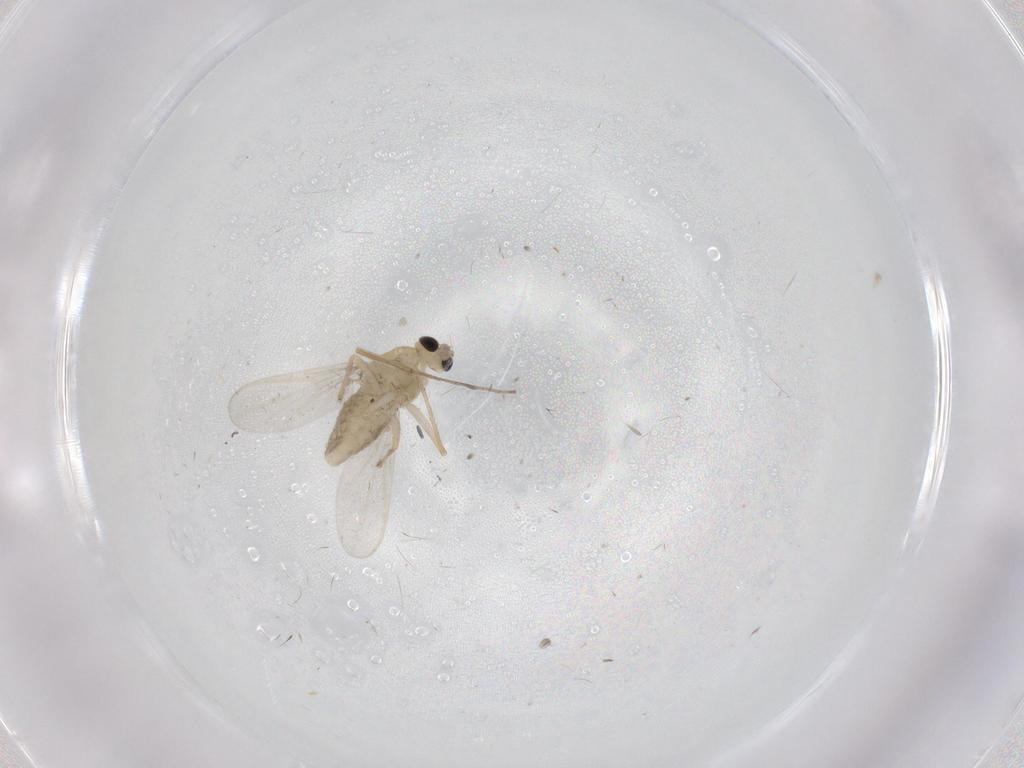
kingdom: Animalia
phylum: Arthropoda
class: Insecta
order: Diptera
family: Chironomidae
